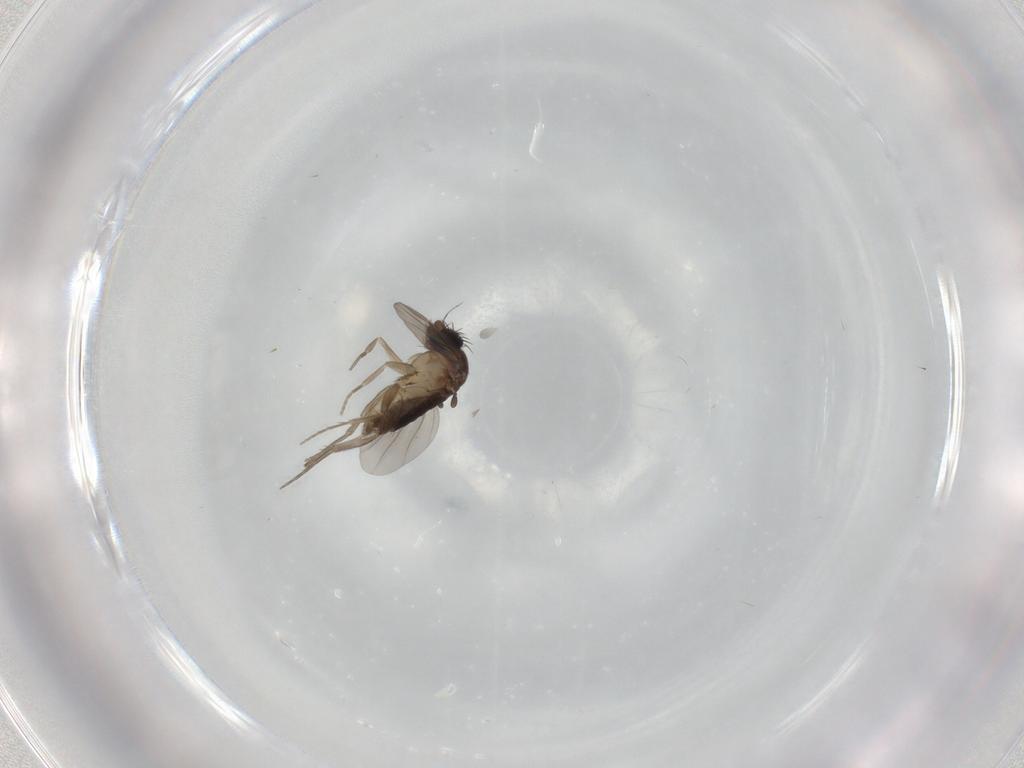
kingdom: Animalia
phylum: Arthropoda
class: Insecta
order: Diptera
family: Phoridae
